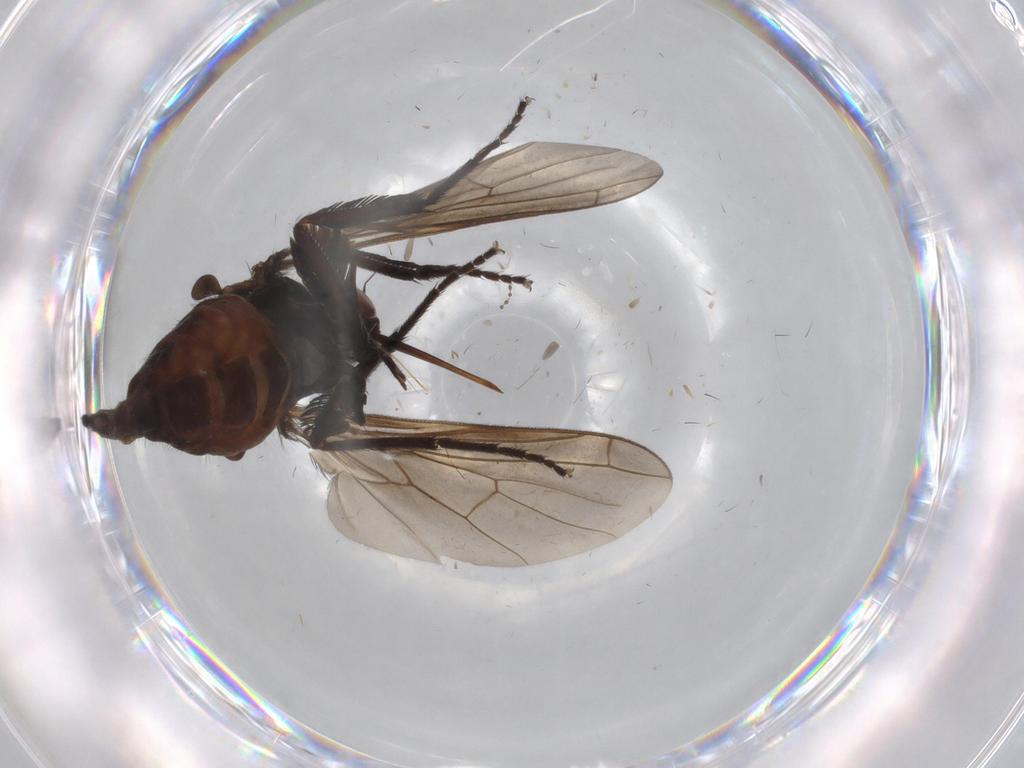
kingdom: Animalia
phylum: Arthropoda
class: Insecta
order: Diptera
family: Empididae
